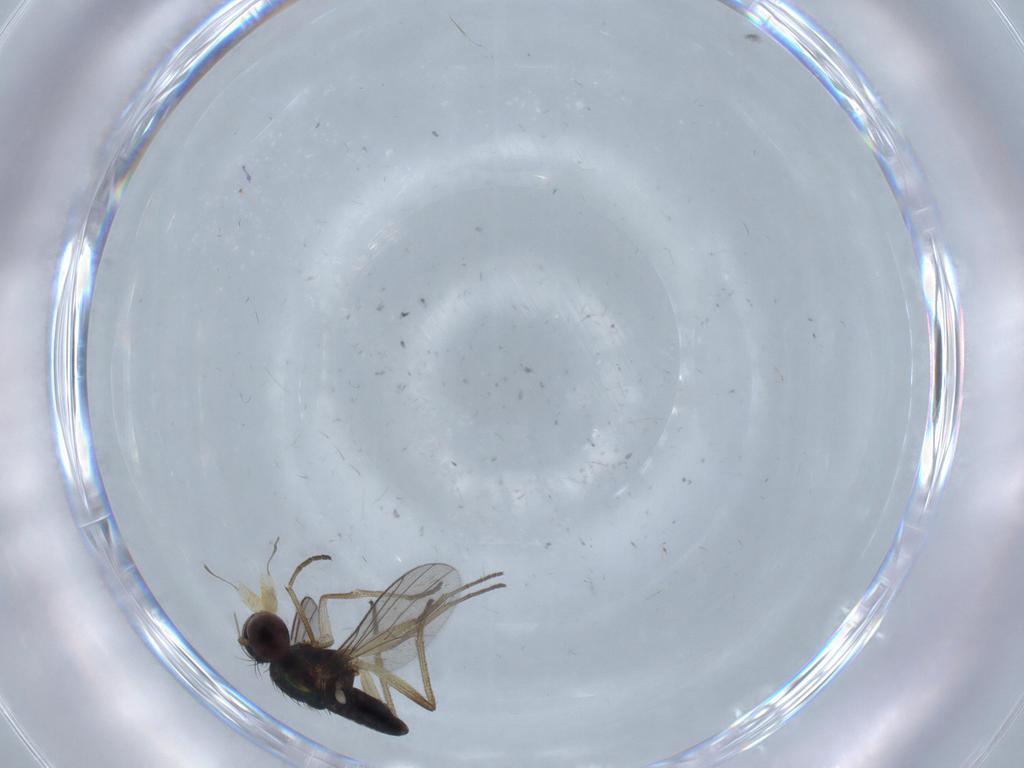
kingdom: Animalia
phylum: Arthropoda
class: Insecta
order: Diptera
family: Dolichopodidae
